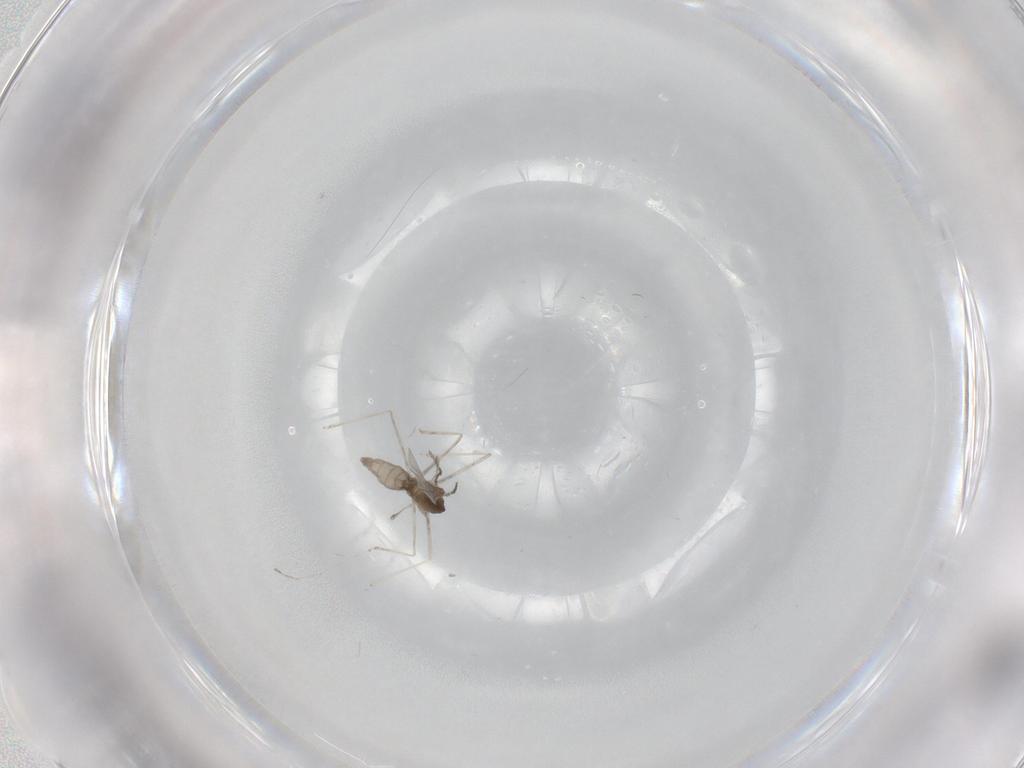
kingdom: Animalia
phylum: Arthropoda
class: Insecta
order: Diptera
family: Cecidomyiidae
